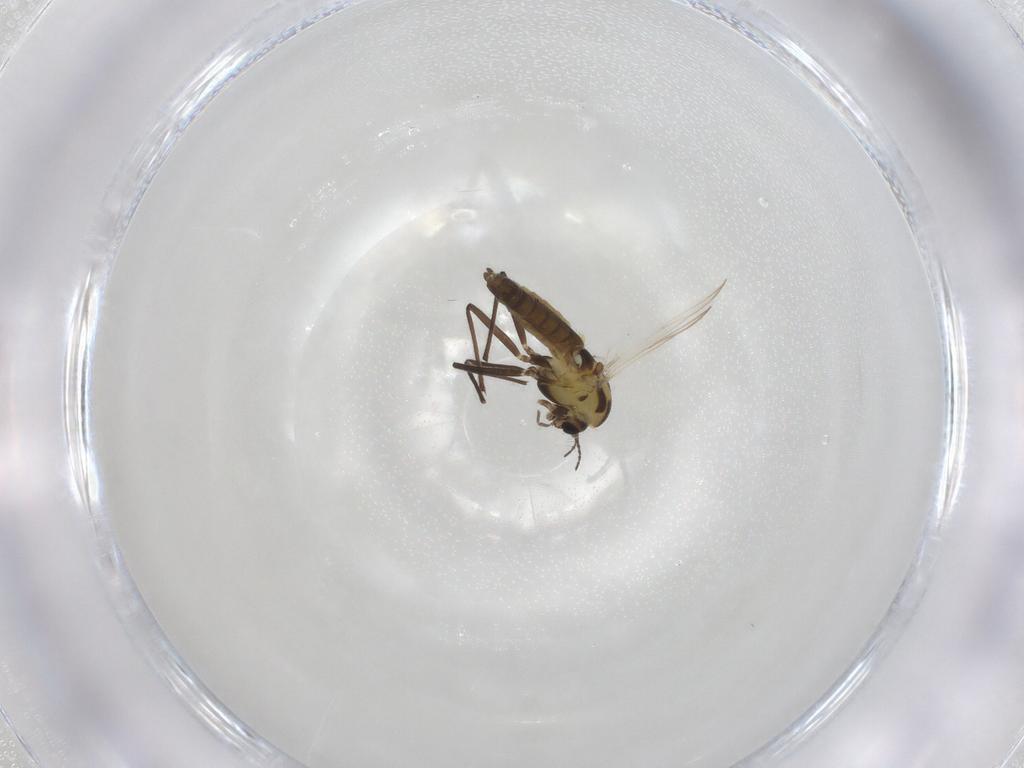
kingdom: Animalia
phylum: Arthropoda
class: Insecta
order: Diptera
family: Chironomidae
